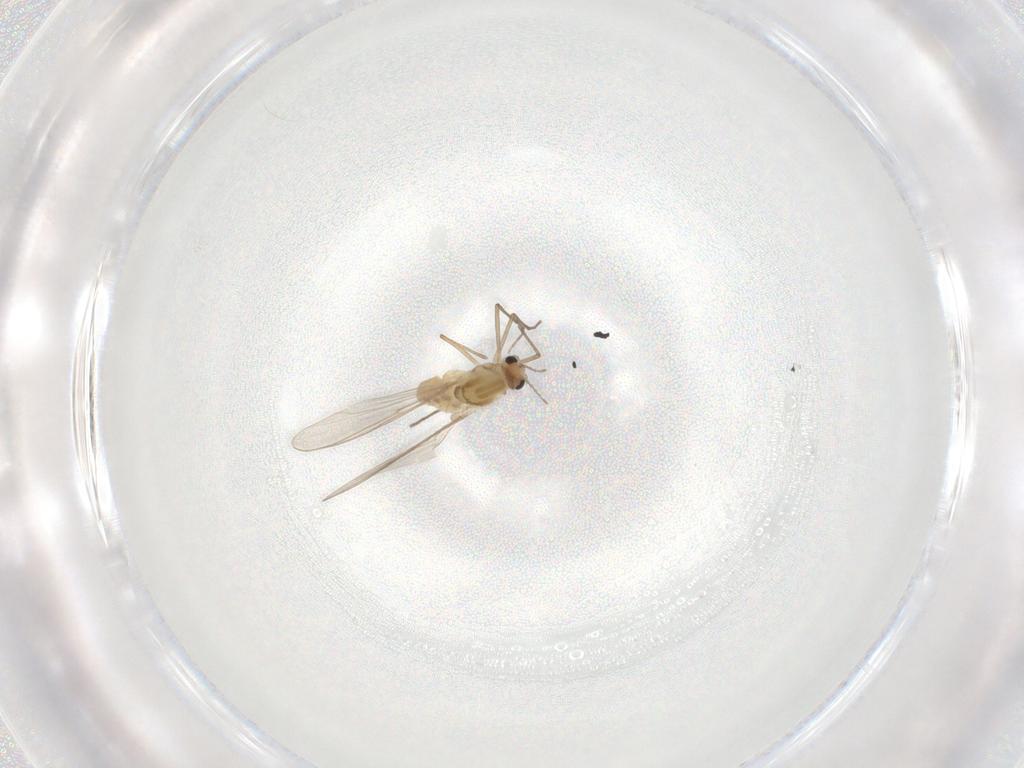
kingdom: Animalia
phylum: Arthropoda
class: Insecta
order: Diptera
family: Chironomidae
